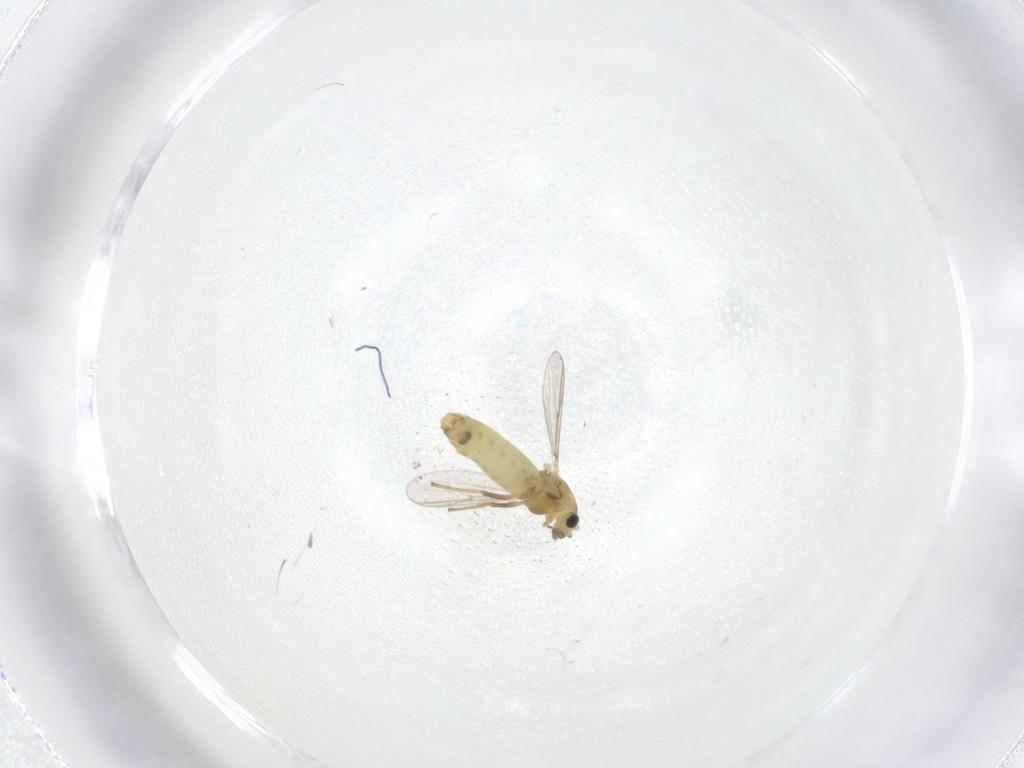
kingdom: Animalia
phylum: Arthropoda
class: Insecta
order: Diptera
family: Chironomidae
